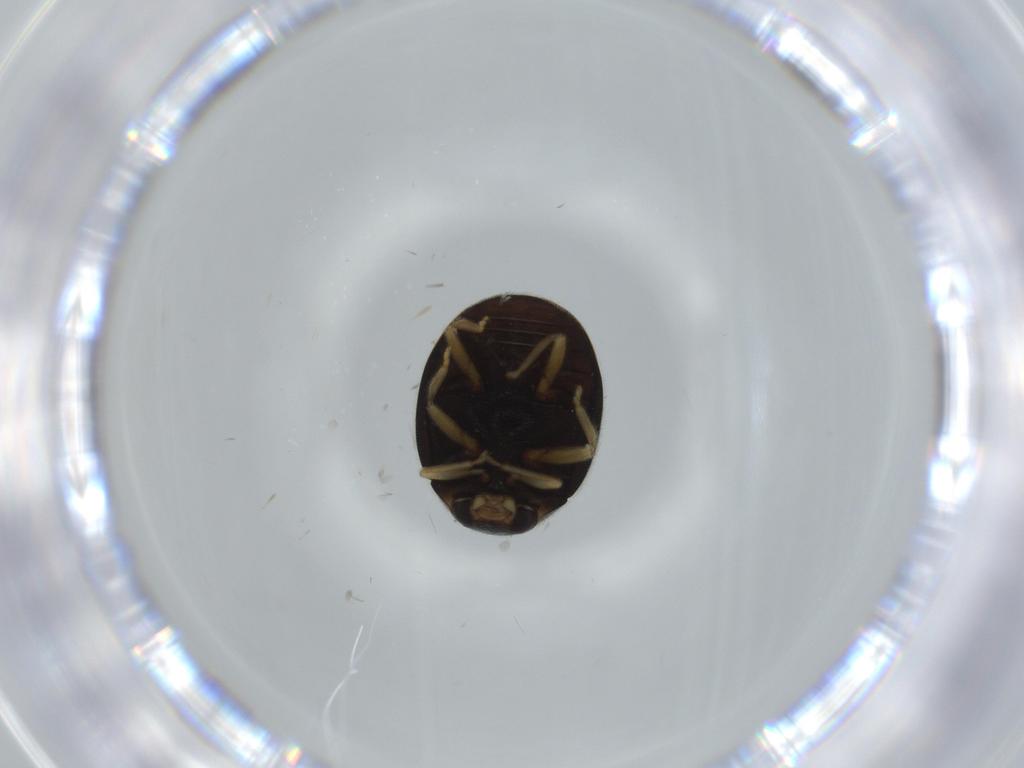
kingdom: Animalia
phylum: Arthropoda
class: Insecta
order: Coleoptera
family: Coccinellidae
